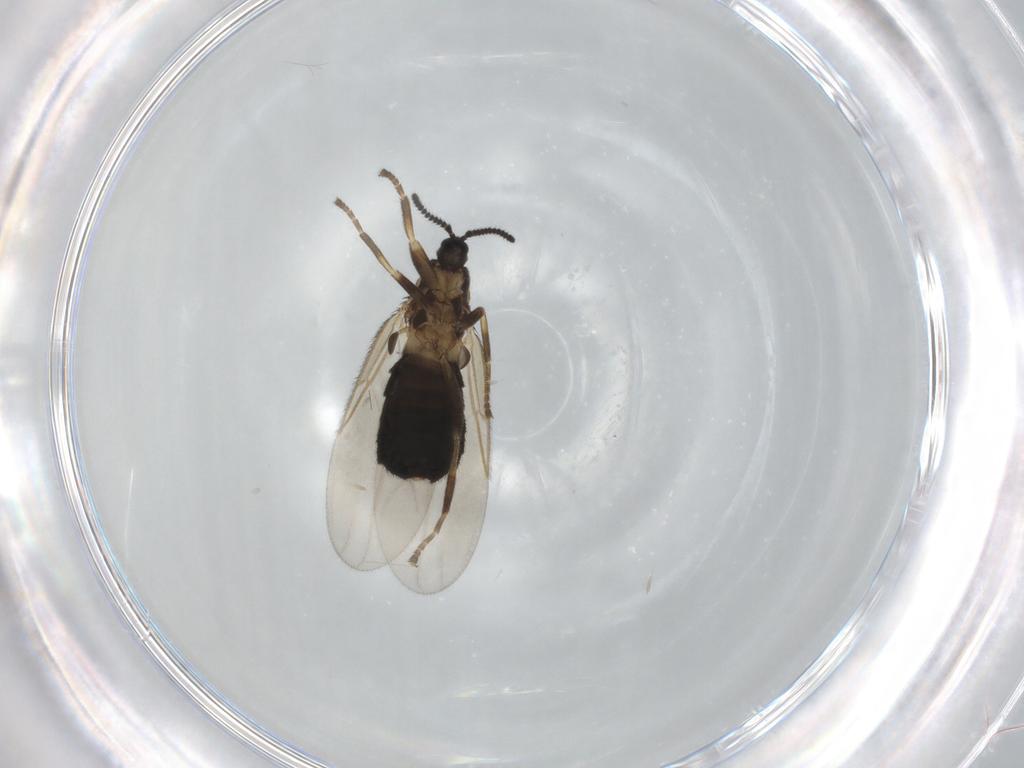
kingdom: Animalia
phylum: Arthropoda
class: Insecta
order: Diptera
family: Scatopsidae
